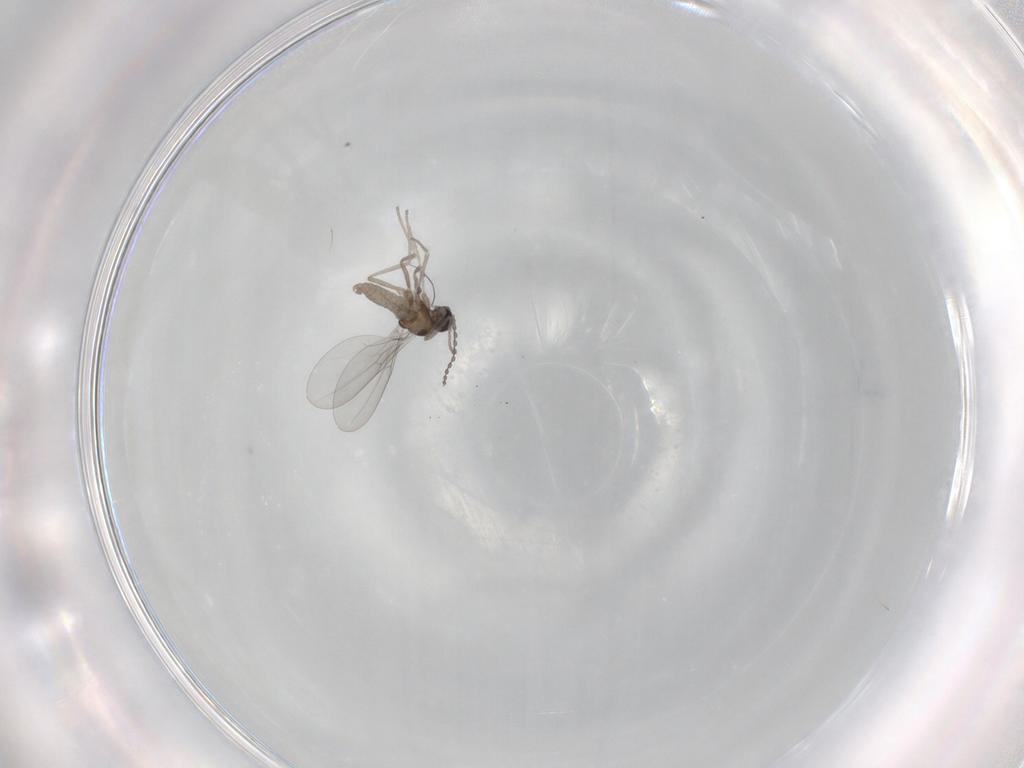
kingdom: Animalia
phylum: Arthropoda
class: Insecta
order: Diptera
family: Cecidomyiidae
